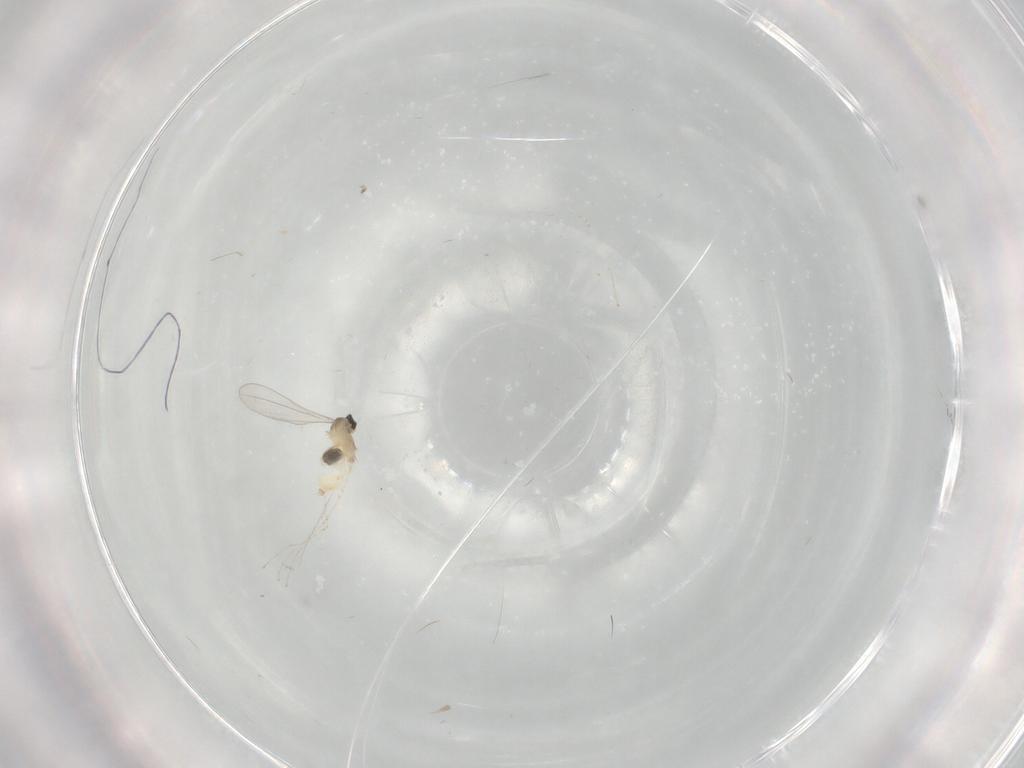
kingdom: Animalia
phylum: Arthropoda
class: Insecta
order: Diptera
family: Cecidomyiidae
